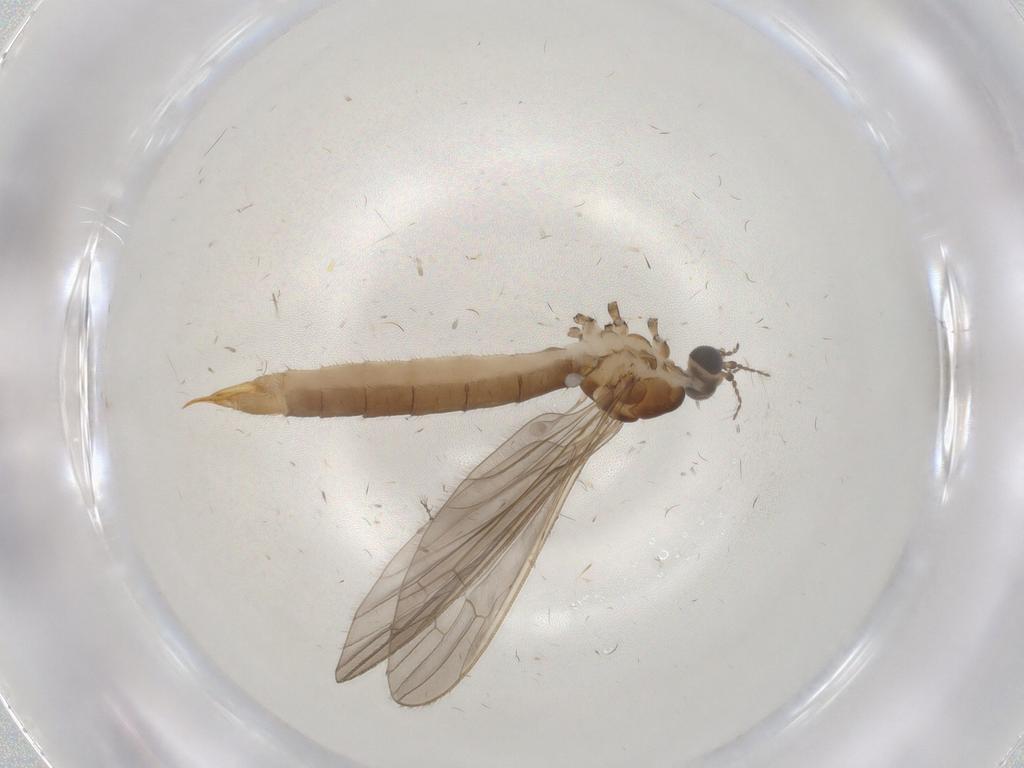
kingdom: Animalia
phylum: Arthropoda
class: Insecta
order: Diptera
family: Limoniidae
